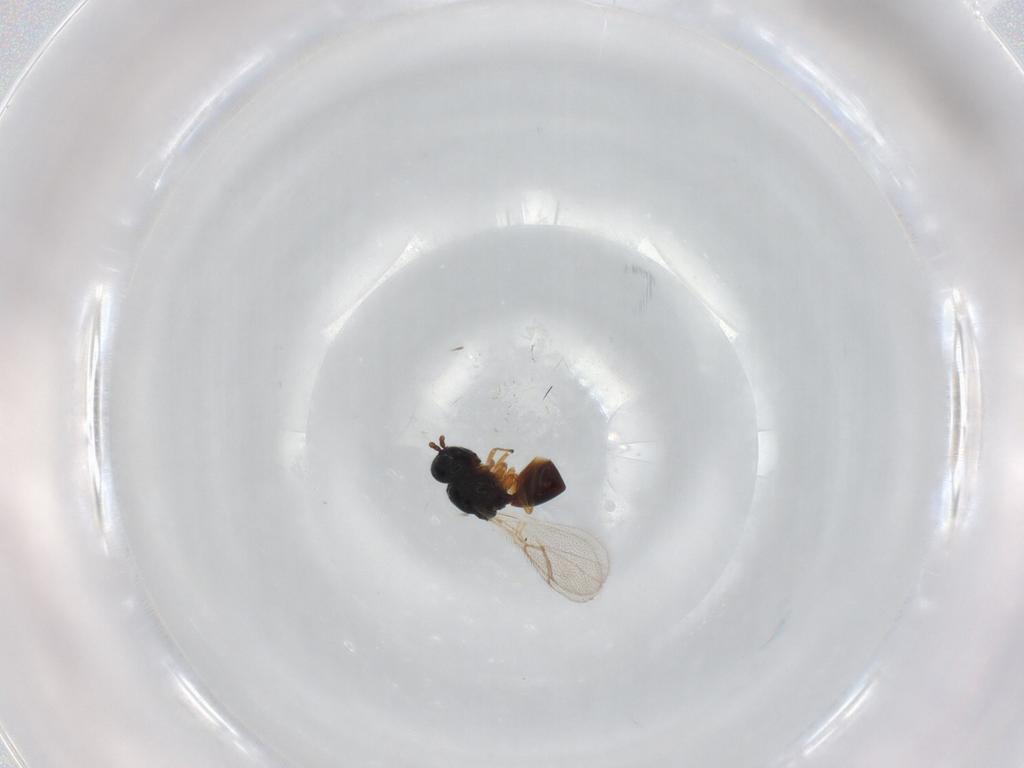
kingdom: Animalia
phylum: Arthropoda
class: Insecta
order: Hymenoptera
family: Figitidae
